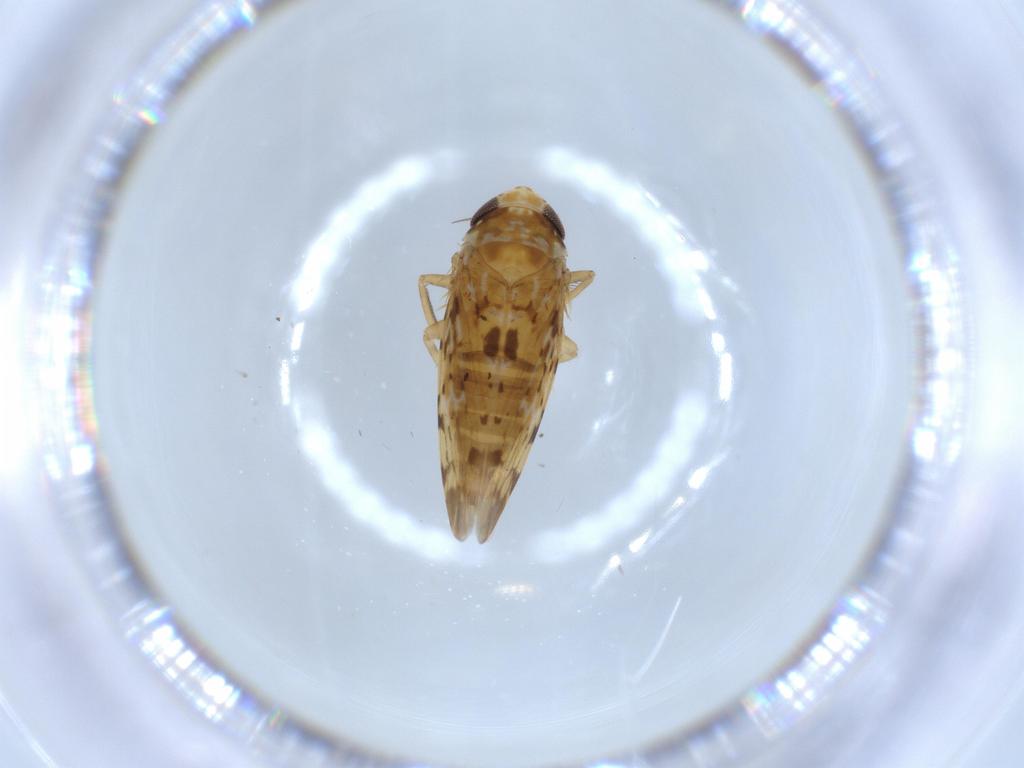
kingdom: Animalia
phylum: Arthropoda
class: Insecta
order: Hemiptera
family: Cicadellidae
